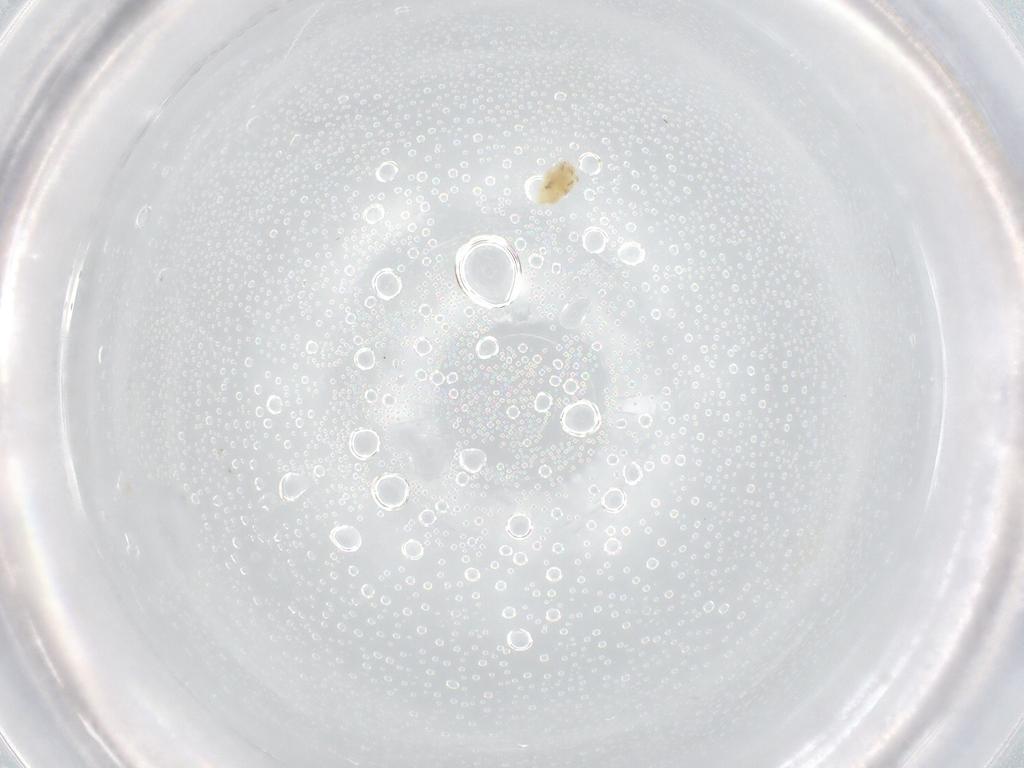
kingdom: Animalia
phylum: Arthropoda
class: Arachnida
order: Trombidiformes
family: Eupodidae
